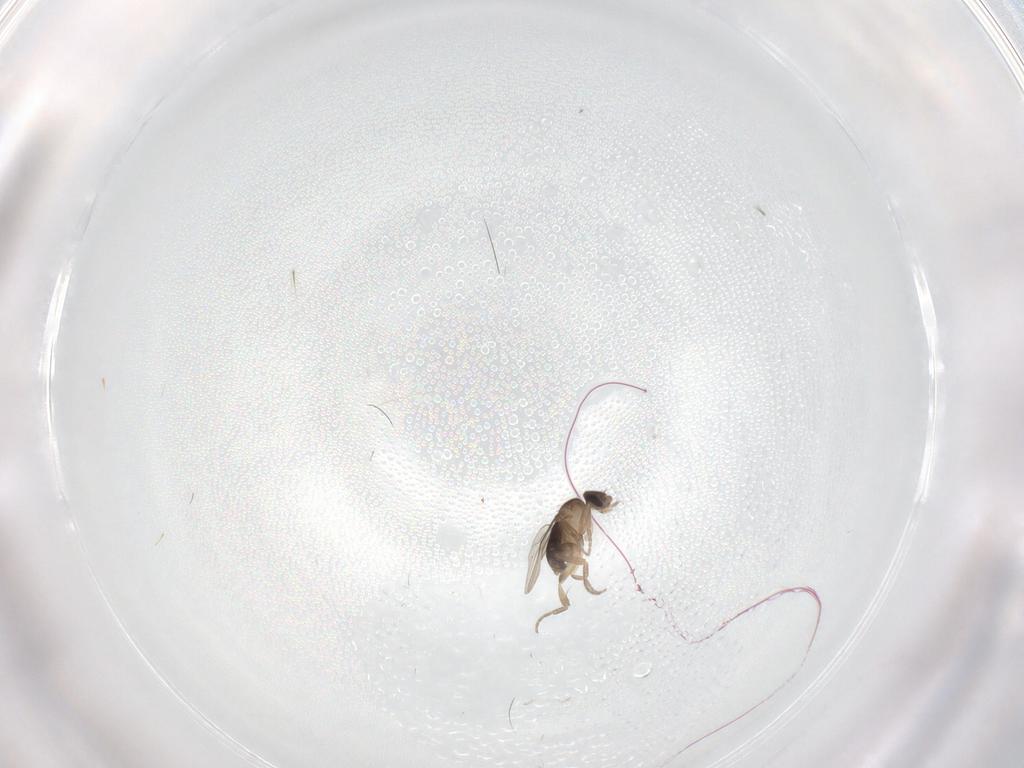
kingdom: Animalia
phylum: Arthropoda
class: Insecta
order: Diptera
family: Phoridae
